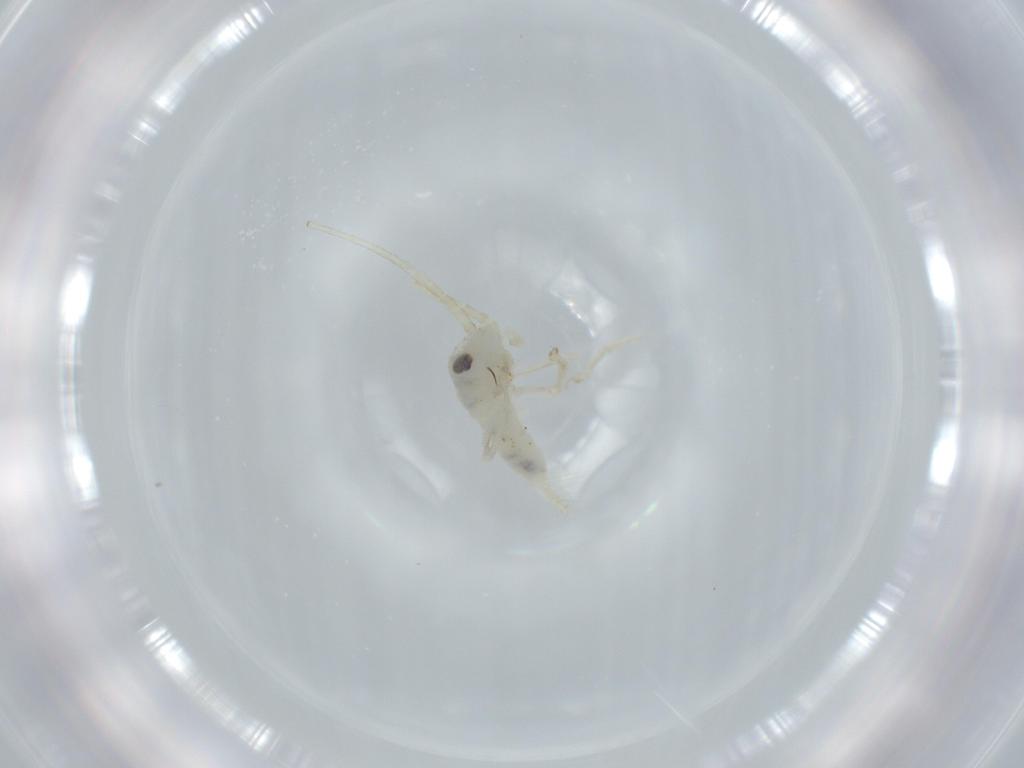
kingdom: Animalia
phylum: Arthropoda
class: Insecta
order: Orthoptera
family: Trigonidiidae
